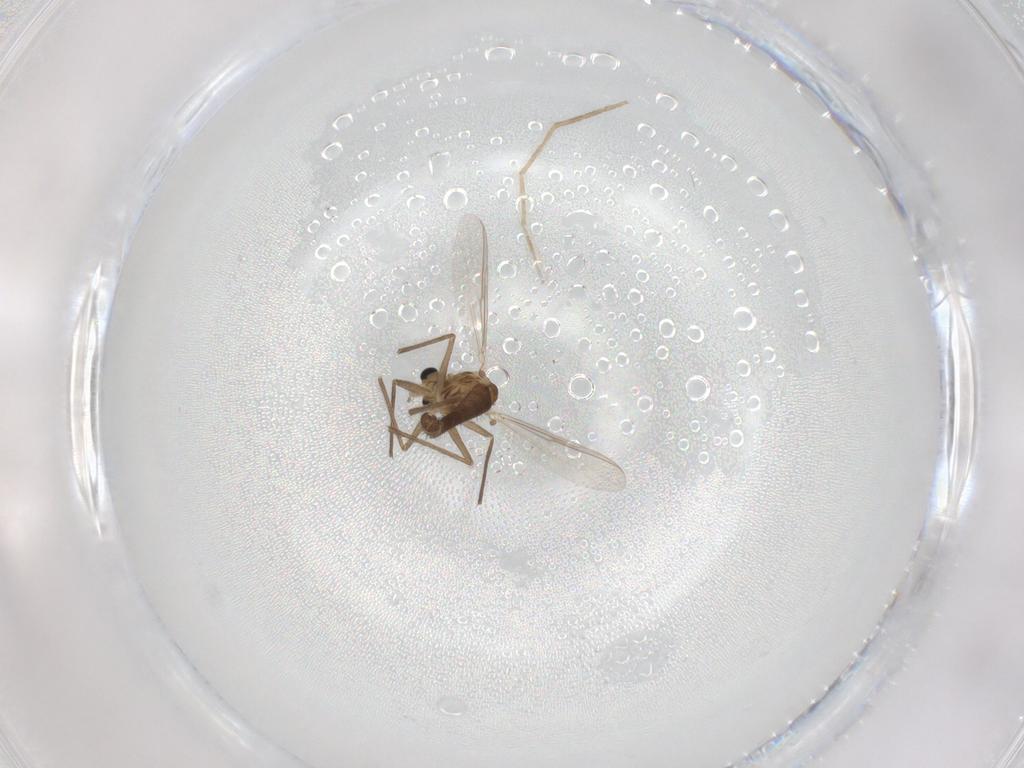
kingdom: Animalia
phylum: Arthropoda
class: Insecta
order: Diptera
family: Chironomidae
